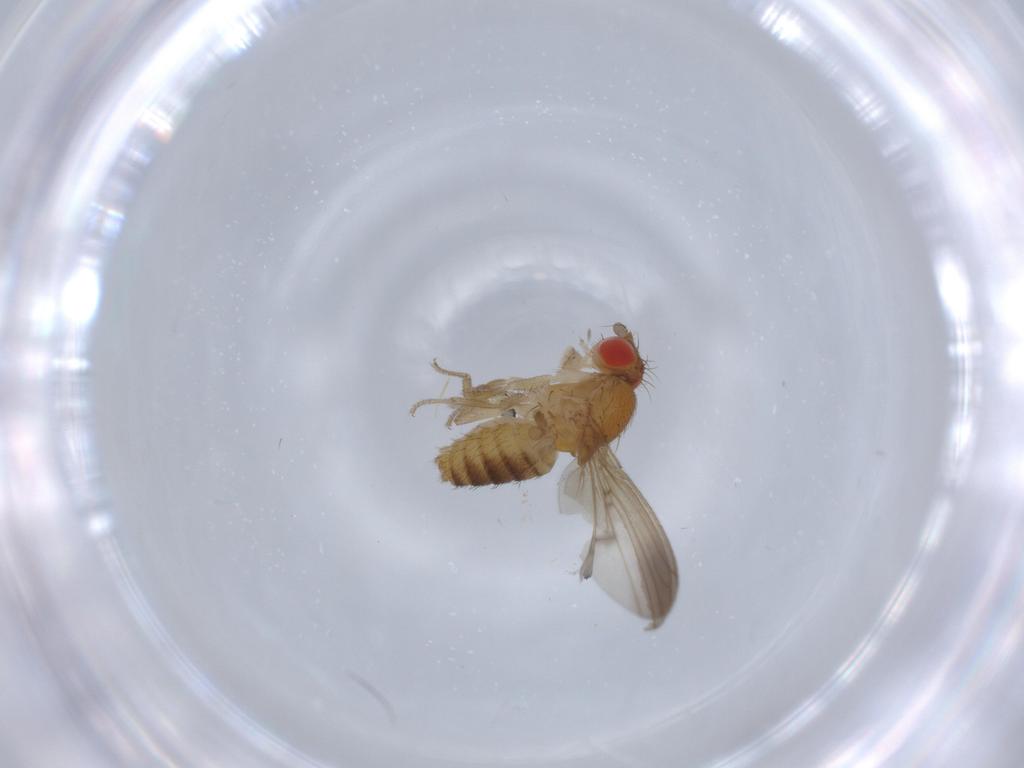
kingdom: Animalia
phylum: Arthropoda
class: Insecta
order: Diptera
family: Drosophilidae
